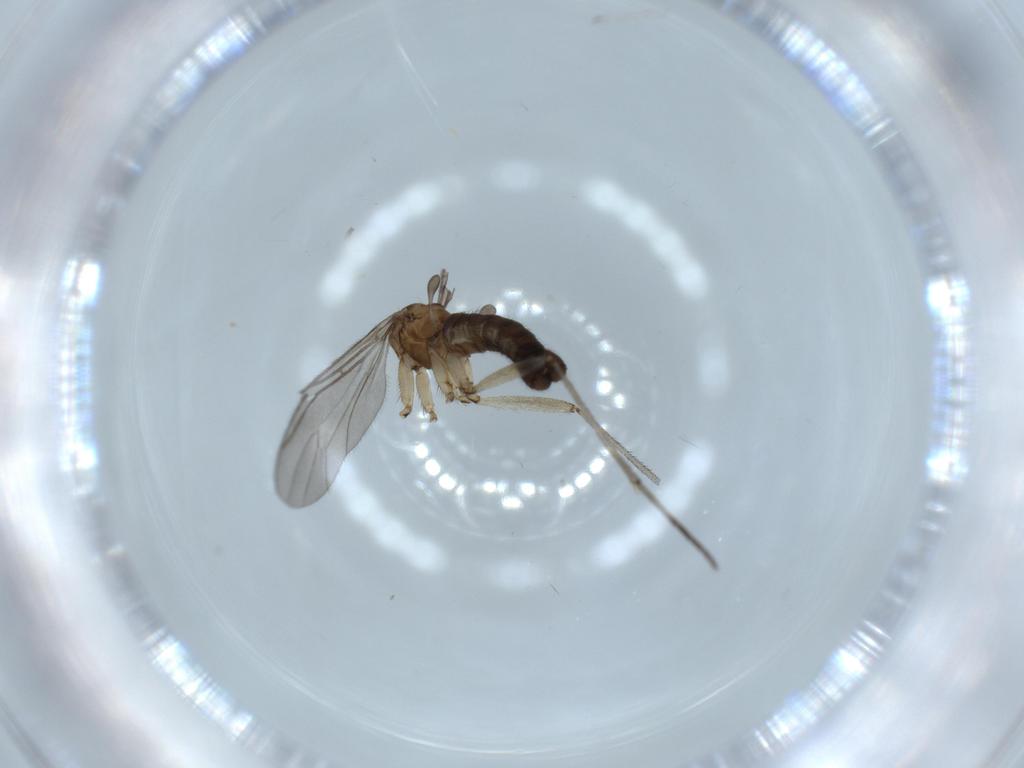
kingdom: Animalia
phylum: Arthropoda
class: Insecta
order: Diptera
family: Sciaridae
